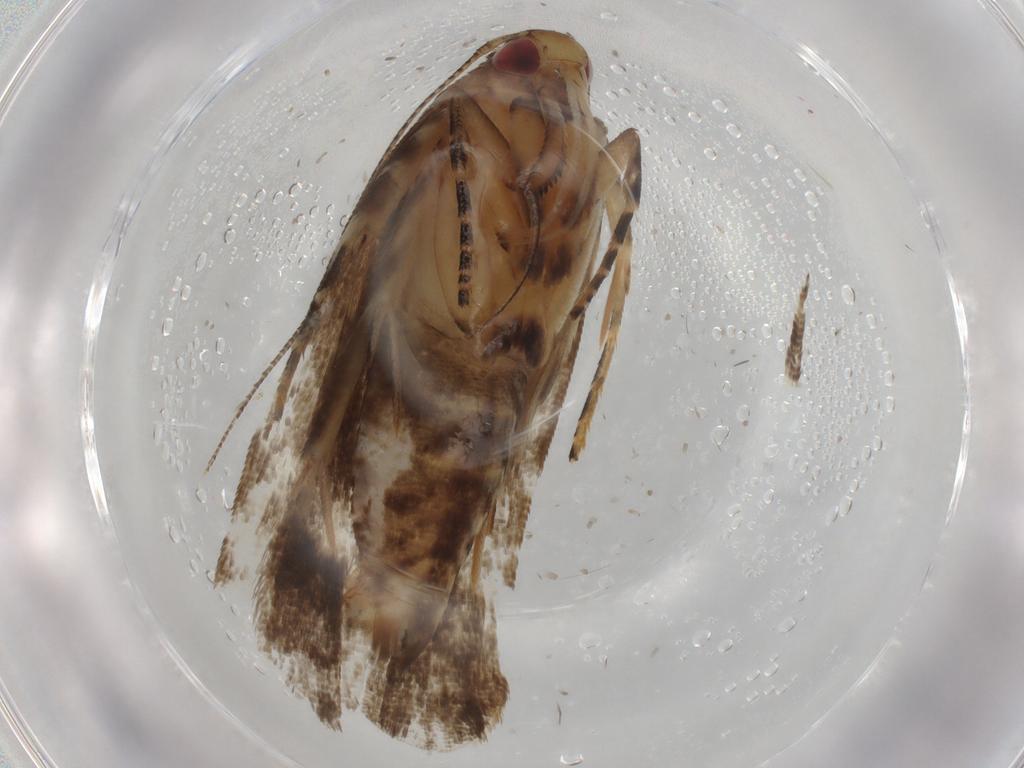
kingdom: Animalia
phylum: Arthropoda
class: Insecta
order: Lepidoptera
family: Gelechiidae
